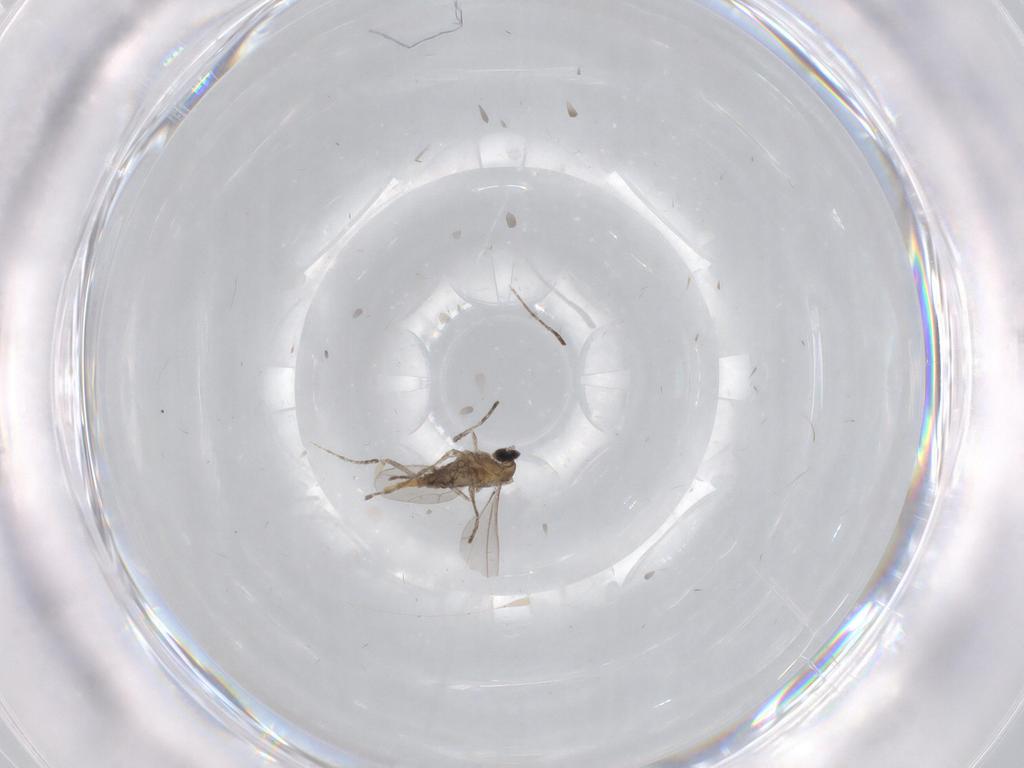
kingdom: Animalia
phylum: Arthropoda
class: Insecta
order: Diptera
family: Cecidomyiidae
